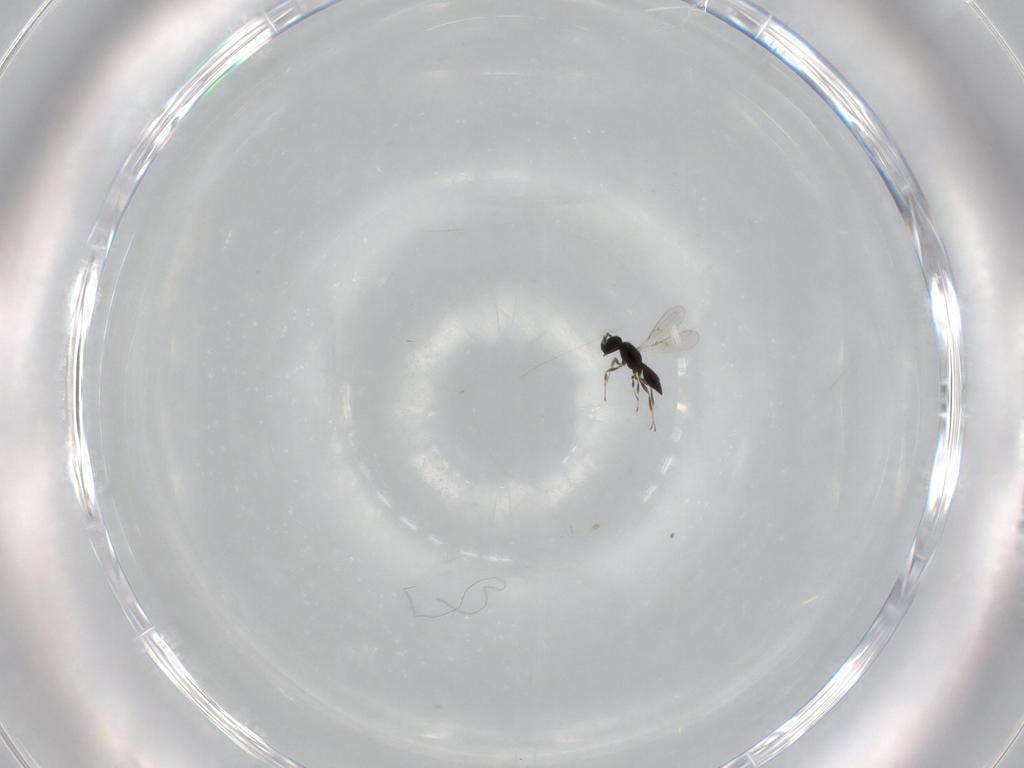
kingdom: Animalia
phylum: Arthropoda
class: Insecta
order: Hymenoptera
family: Scelionidae
